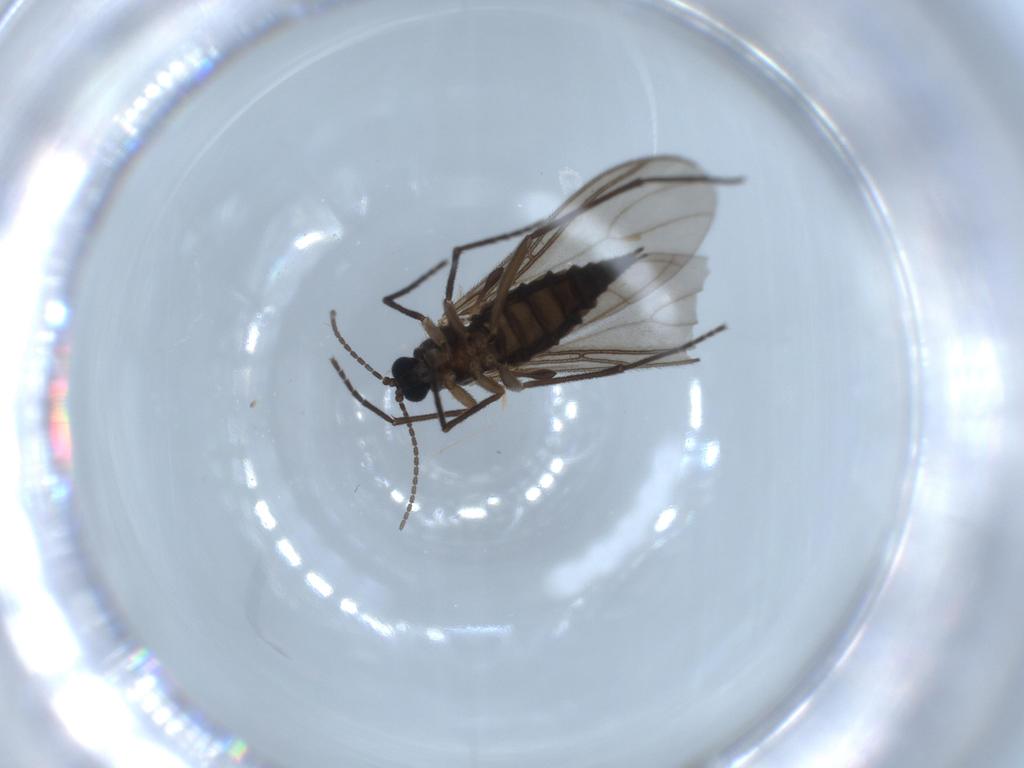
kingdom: Animalia
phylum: Arthropoda
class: Insecta
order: Diptera
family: Sciaridae
